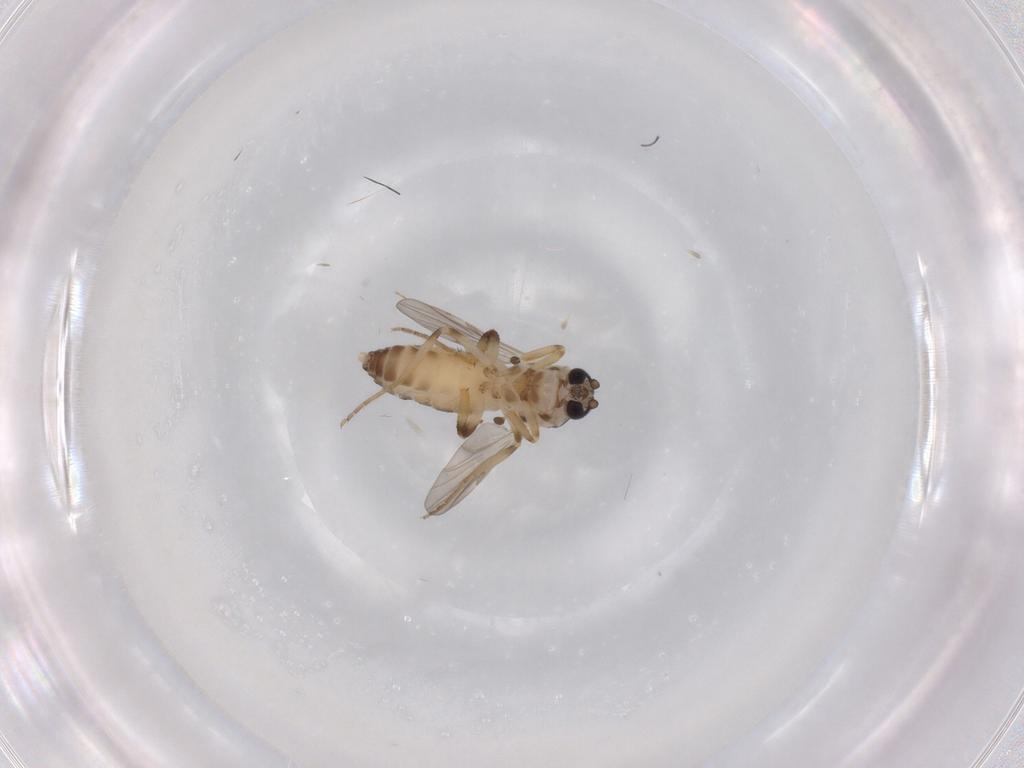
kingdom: Animalia
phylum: Arthropoda
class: Insecta
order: Diptera
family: Ceratopogonidae
